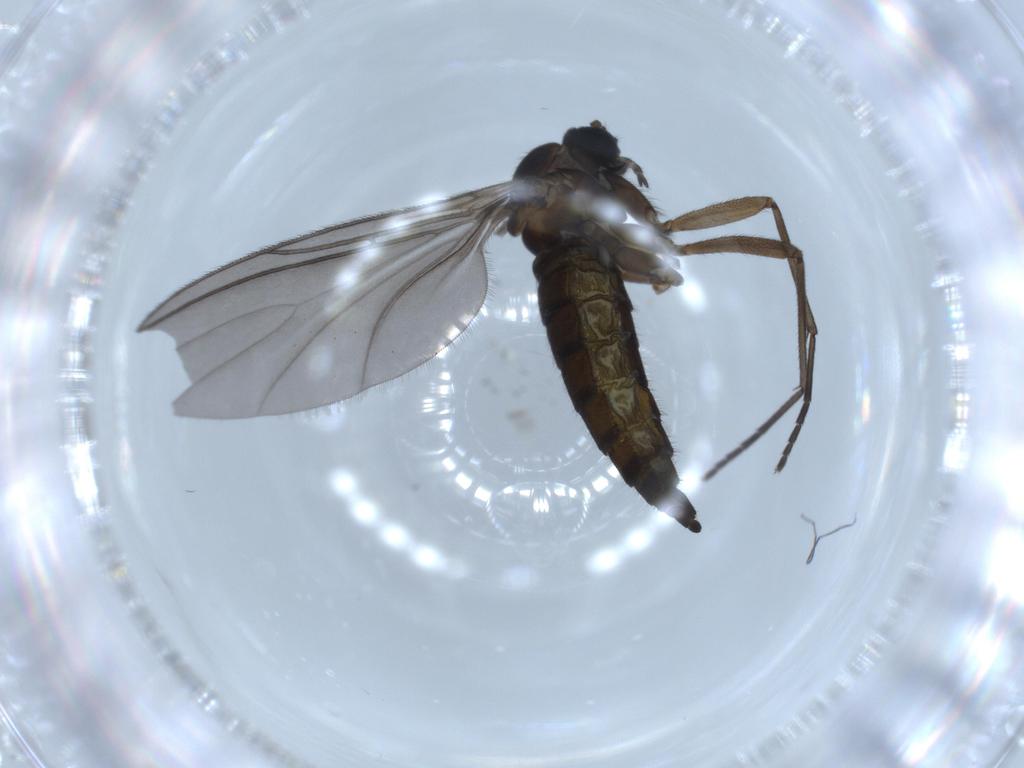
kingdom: Animalia
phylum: Arthropoda
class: Insecta
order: Diptera
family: Sciaridae
